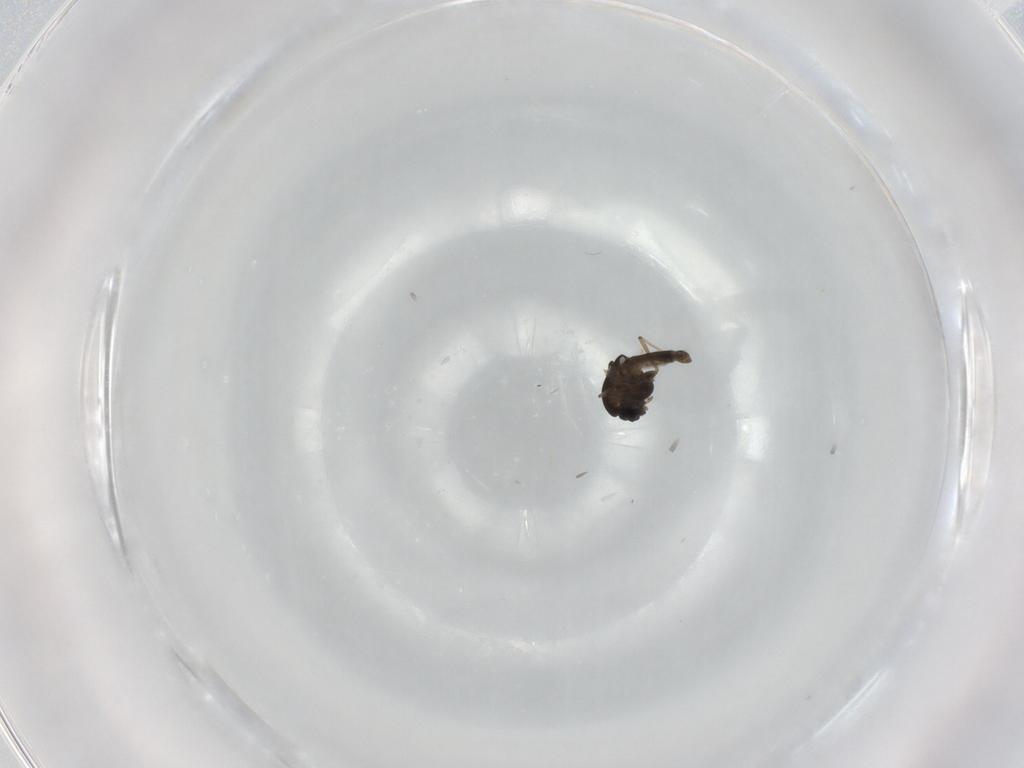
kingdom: Animalia
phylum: Arthropoda
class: Insecta
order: Diptera
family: Chironomidae
